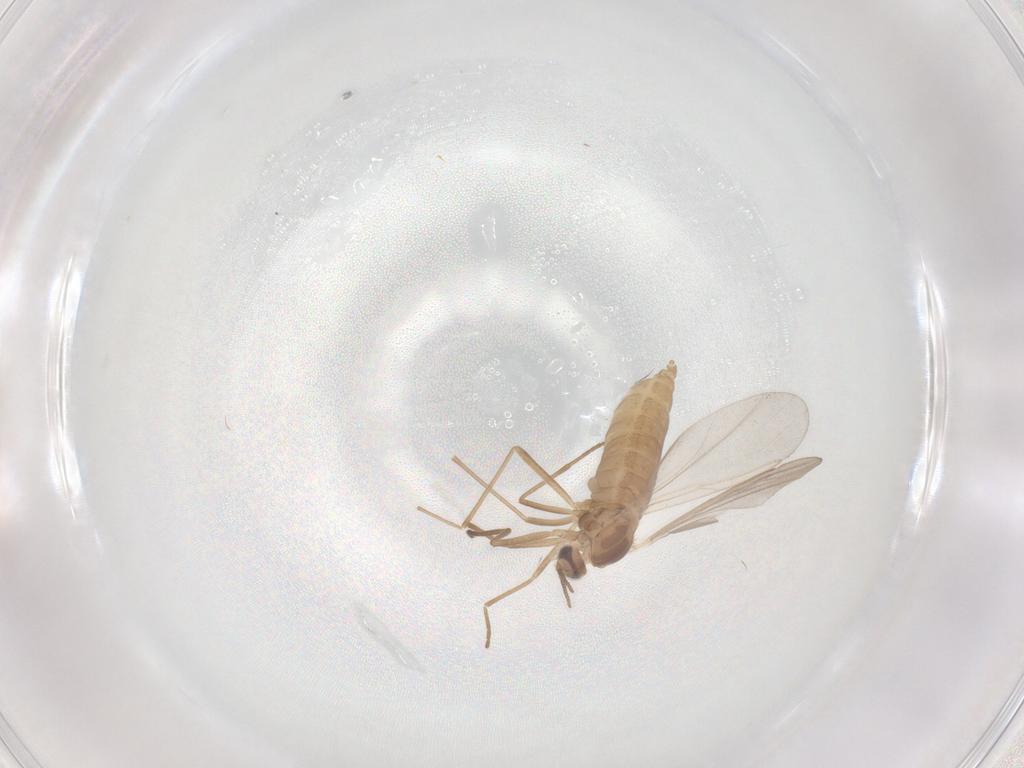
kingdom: Animalia
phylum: Arthropoda
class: Insecta
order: Diptera
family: Cecidomyiidae
